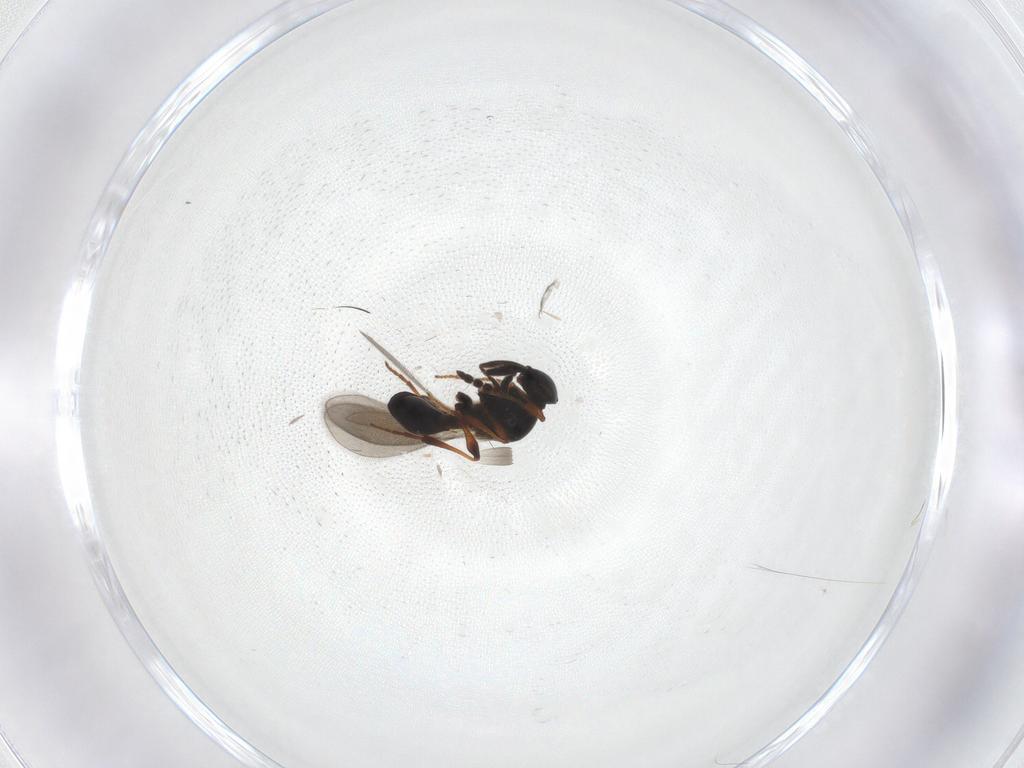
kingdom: Animalia
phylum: Arthropoda
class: Insecta
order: Hymenoptera
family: Platygastridae
